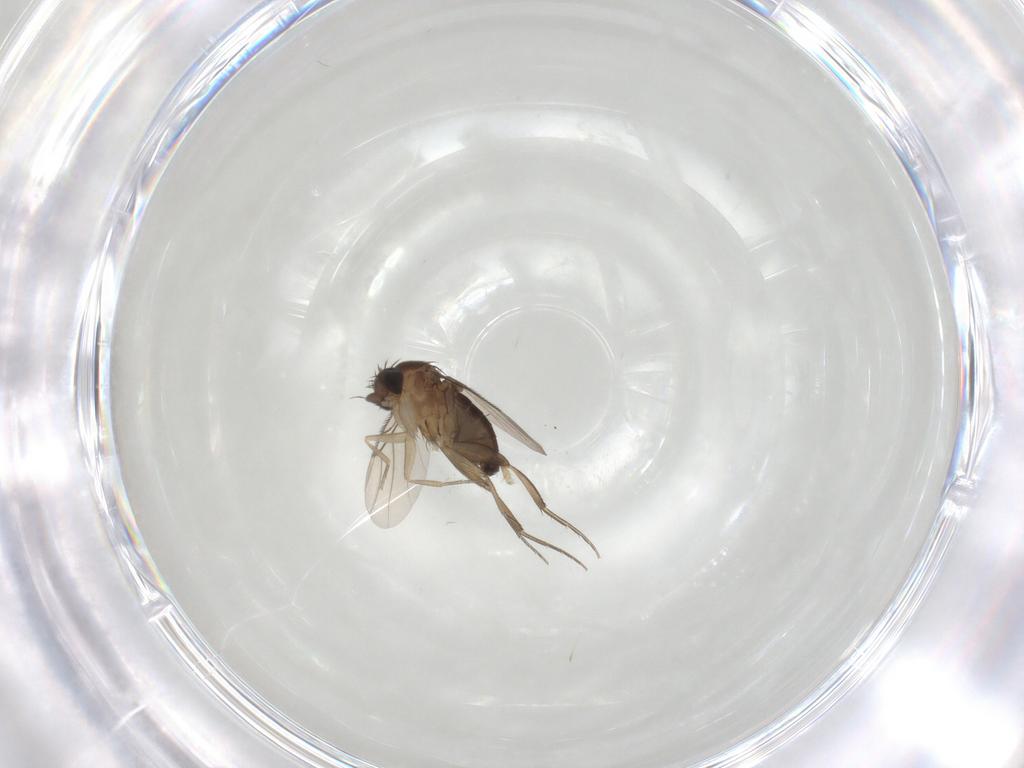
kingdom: Animalia
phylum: Arthropoda
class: Insecta
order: Diptera
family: Phoridae
